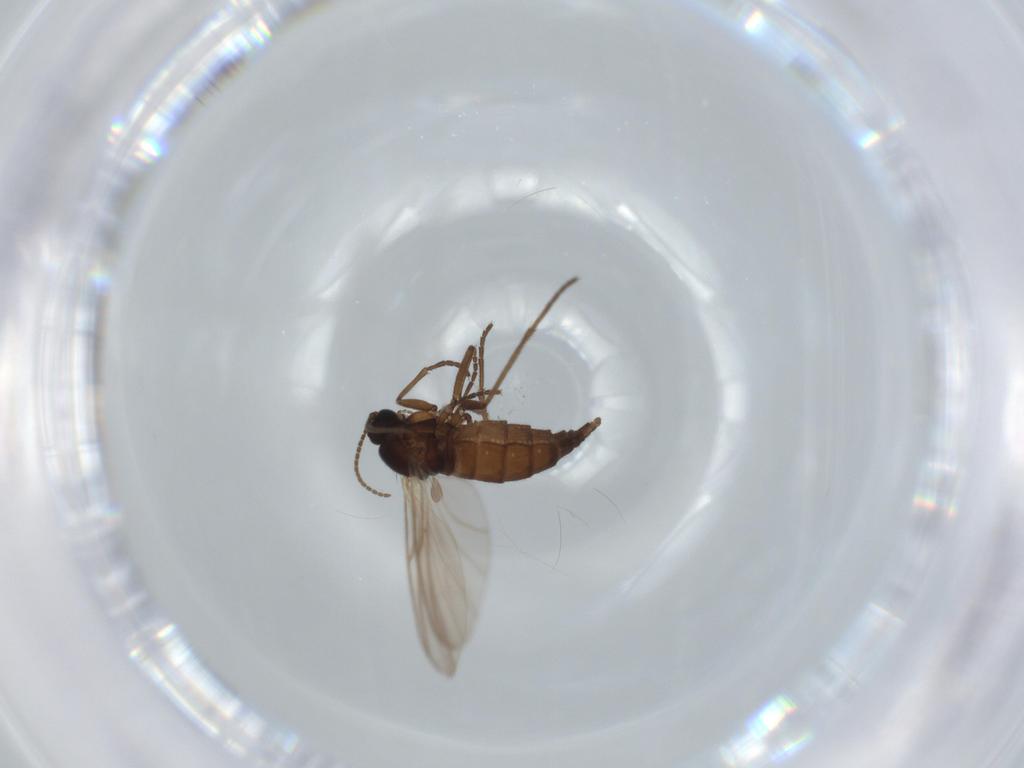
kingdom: Animalia
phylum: Arthropoda
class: Insecta
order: Diptera
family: Sciaridae
